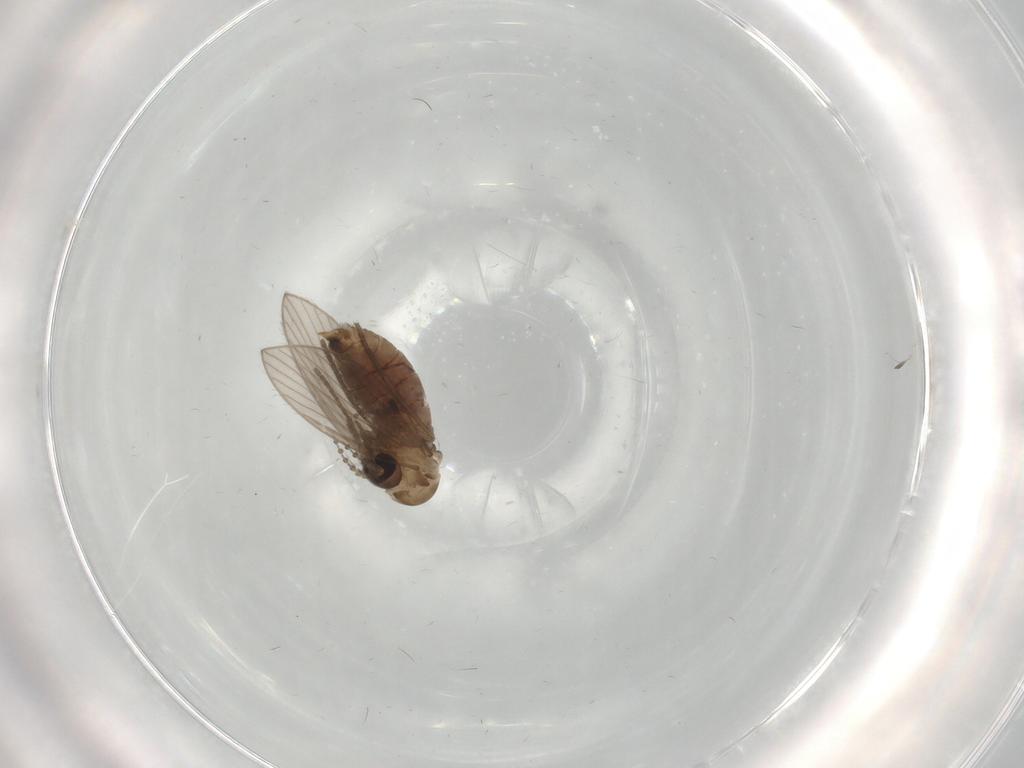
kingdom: Animalia
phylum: Arthropoda
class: Insecta
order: Diptera
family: Psychodidae
